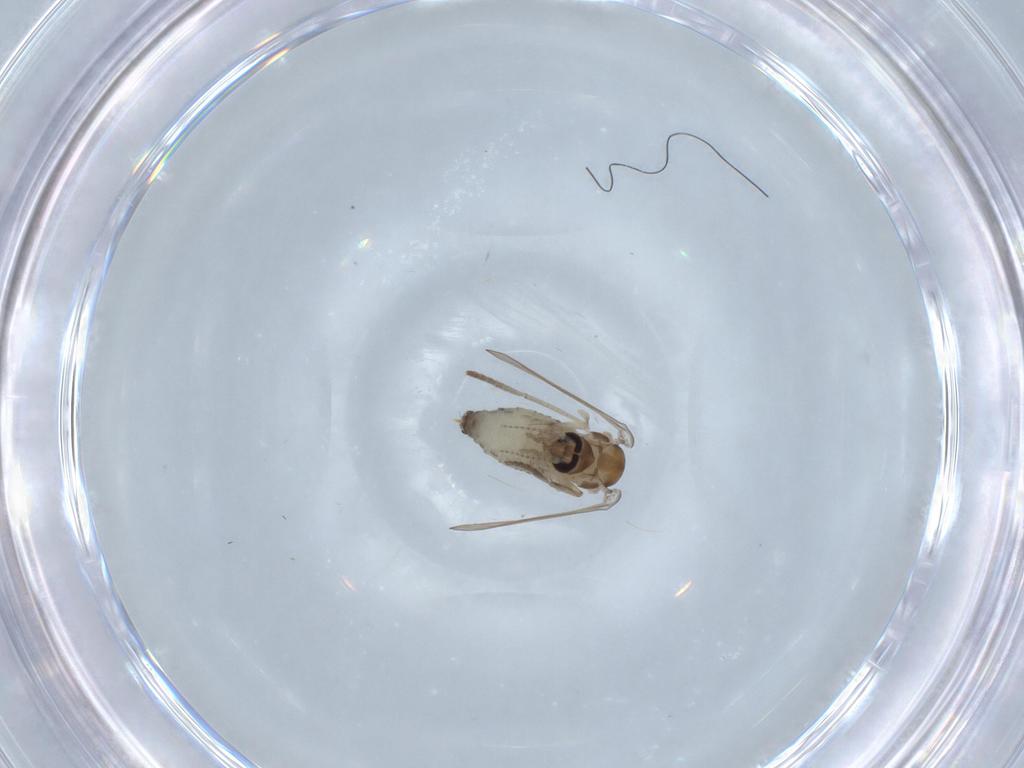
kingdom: Animalia
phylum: Arthropoda
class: Insecta
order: Diptera
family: Psychodidae
